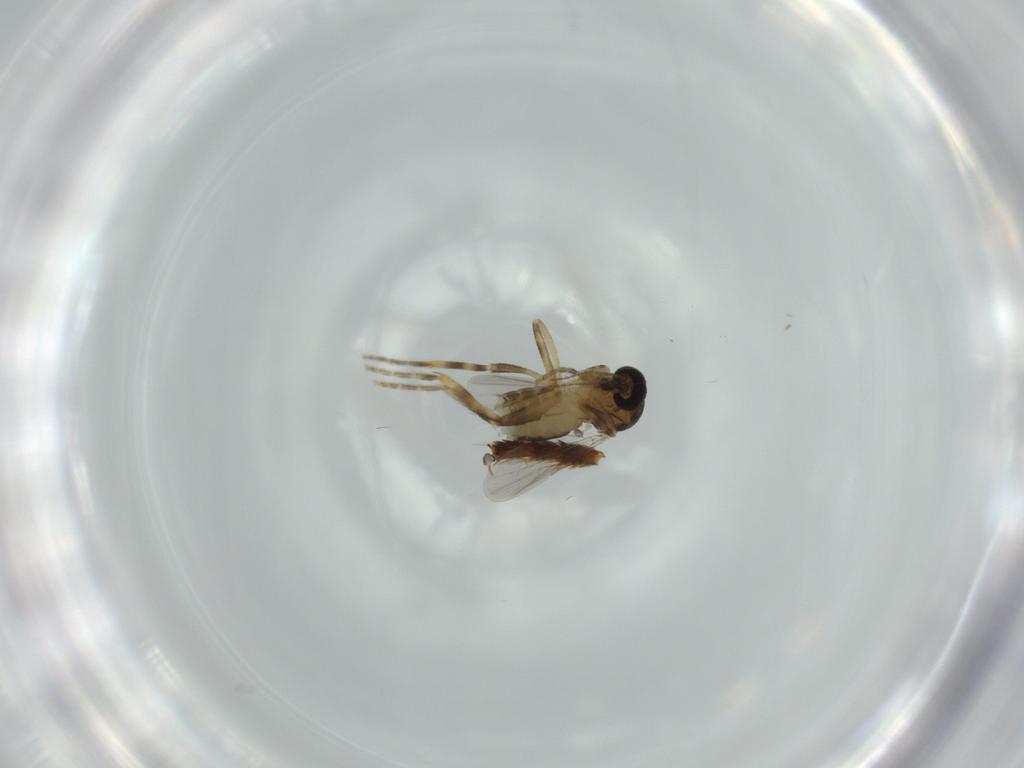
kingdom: Animalia
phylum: Arthropoda
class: Insecta
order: Diptera
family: Ceratopogonidae
